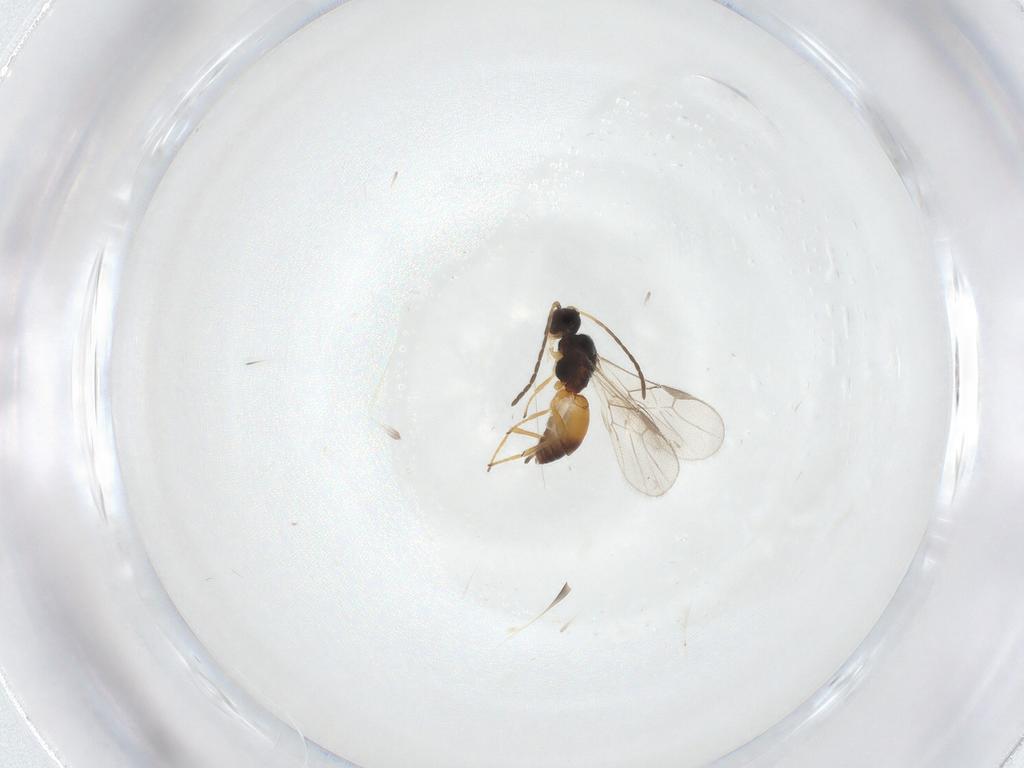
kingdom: Animalia
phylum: Arthropoda
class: Insecta
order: Hymenoptera
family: Braconidae
